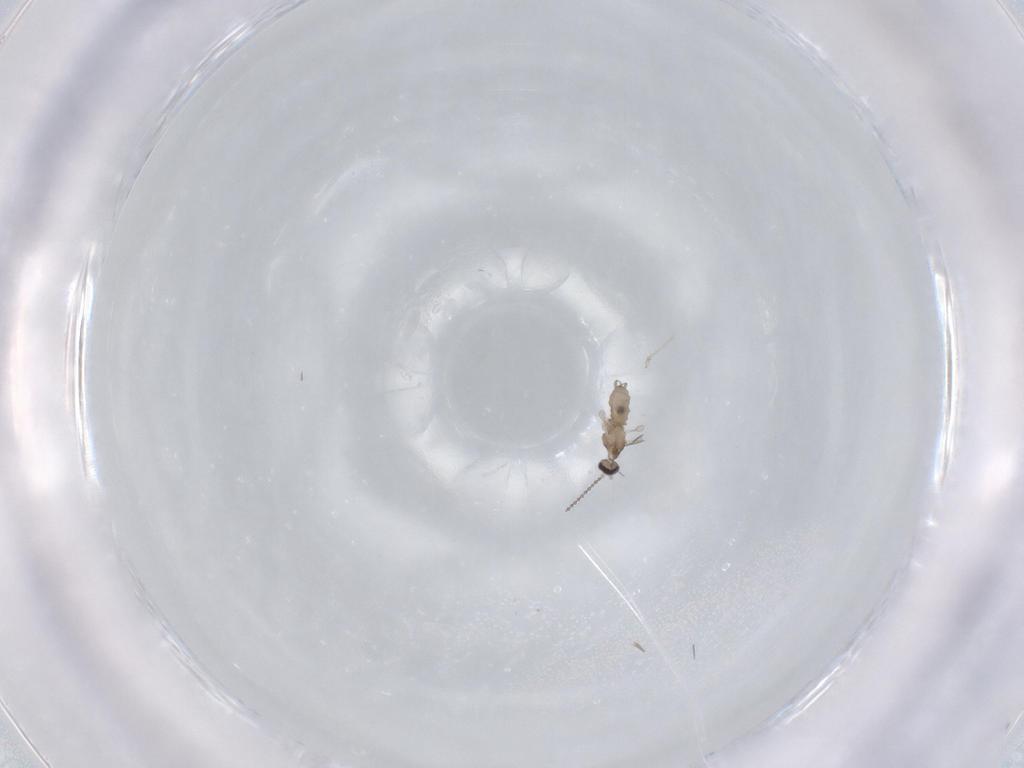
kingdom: Animalia
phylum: Arthropoda
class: Insecta
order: Diptera
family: Cecidomyiidae
